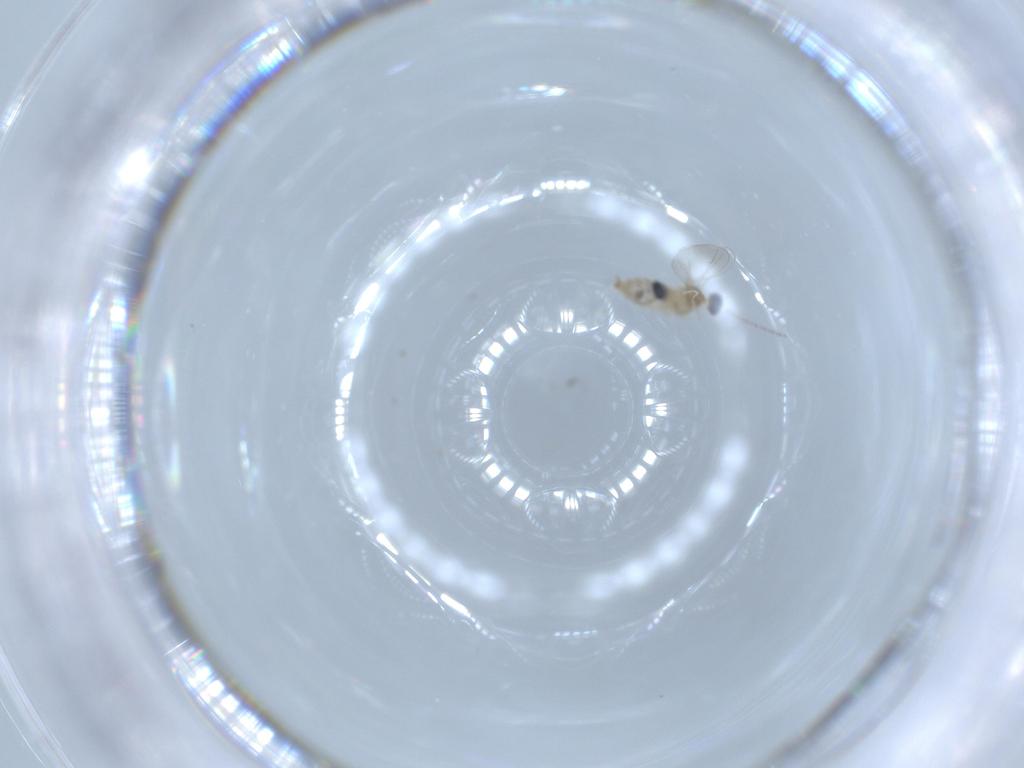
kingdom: Animalia
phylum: Arthropoda
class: Insecta
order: Diptera
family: Cecidomyiidae
